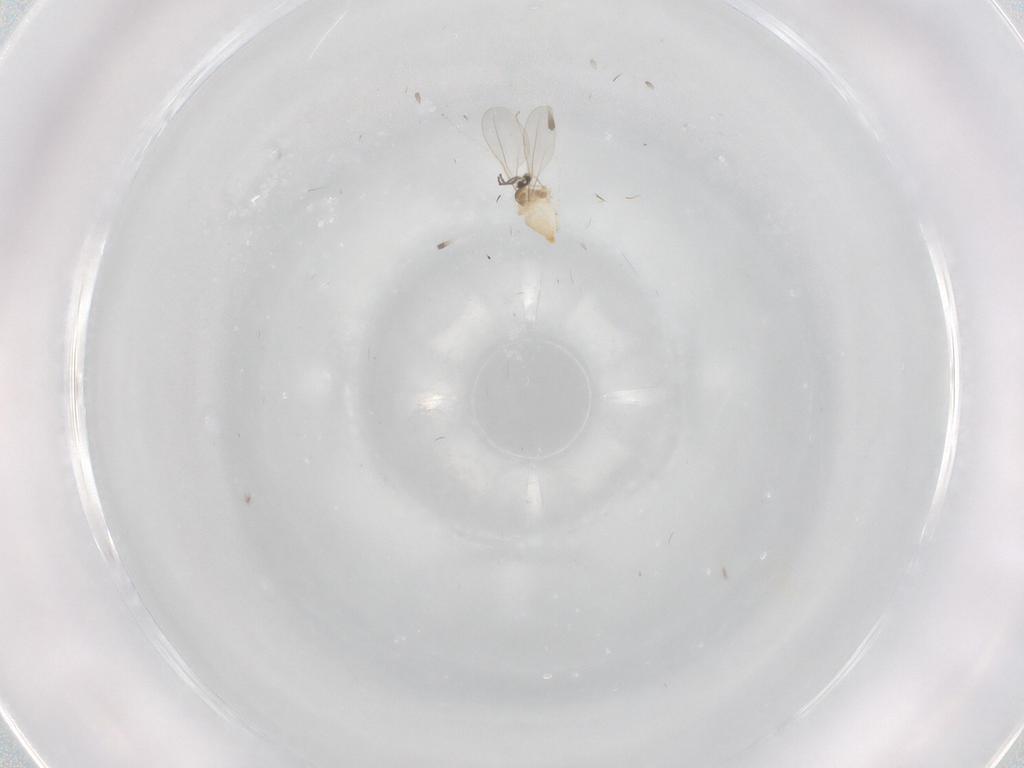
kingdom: Animalia
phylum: Arthropoda
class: Insecta
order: Diptera
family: Cecidomyiidae
